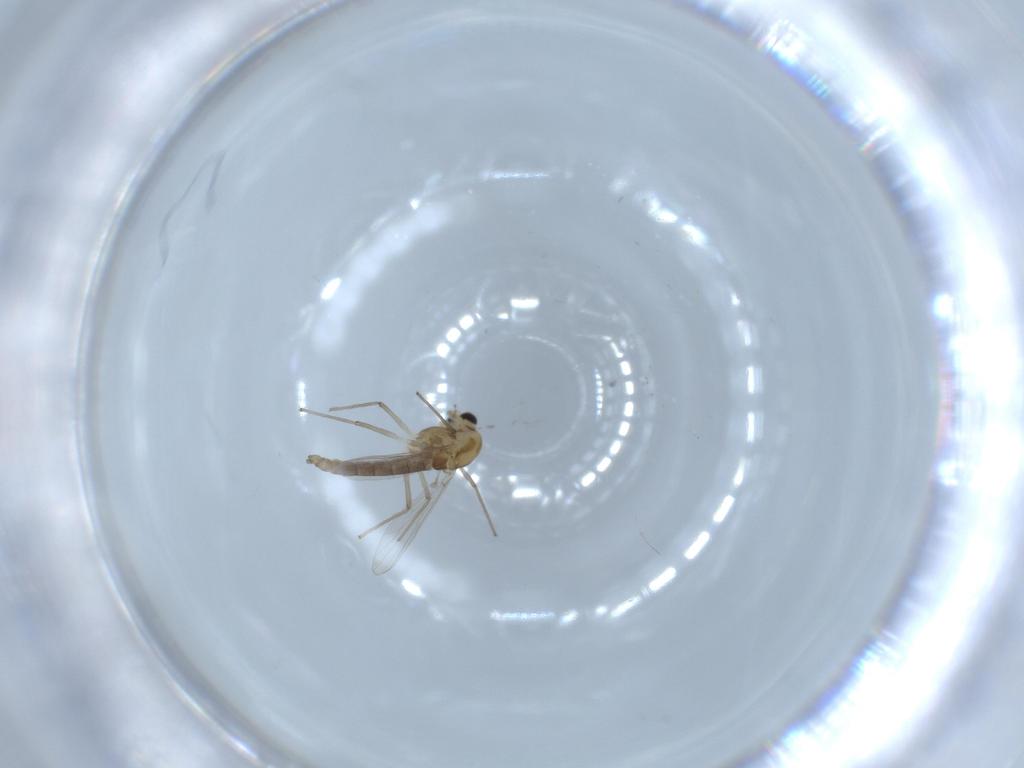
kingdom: Animalia
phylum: Arthropoda
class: Insecta
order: Diptera
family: Chironomidae
